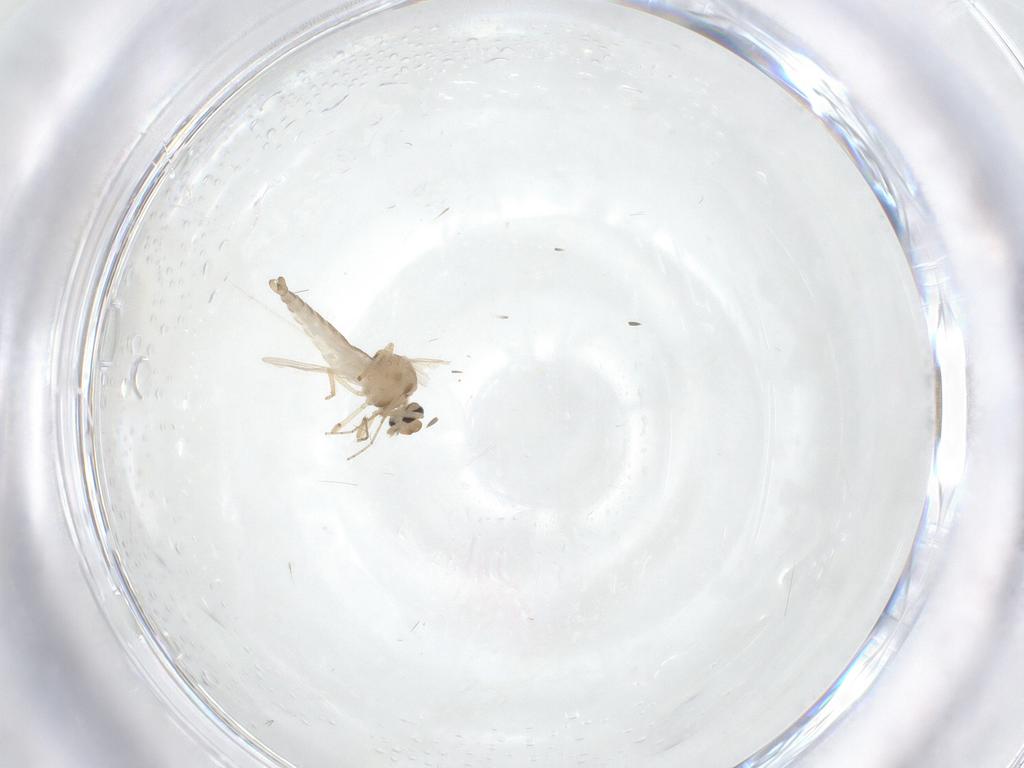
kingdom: Animalia
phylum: Arthropoda
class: Insecta
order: Diptera
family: Ceratopogonidae
